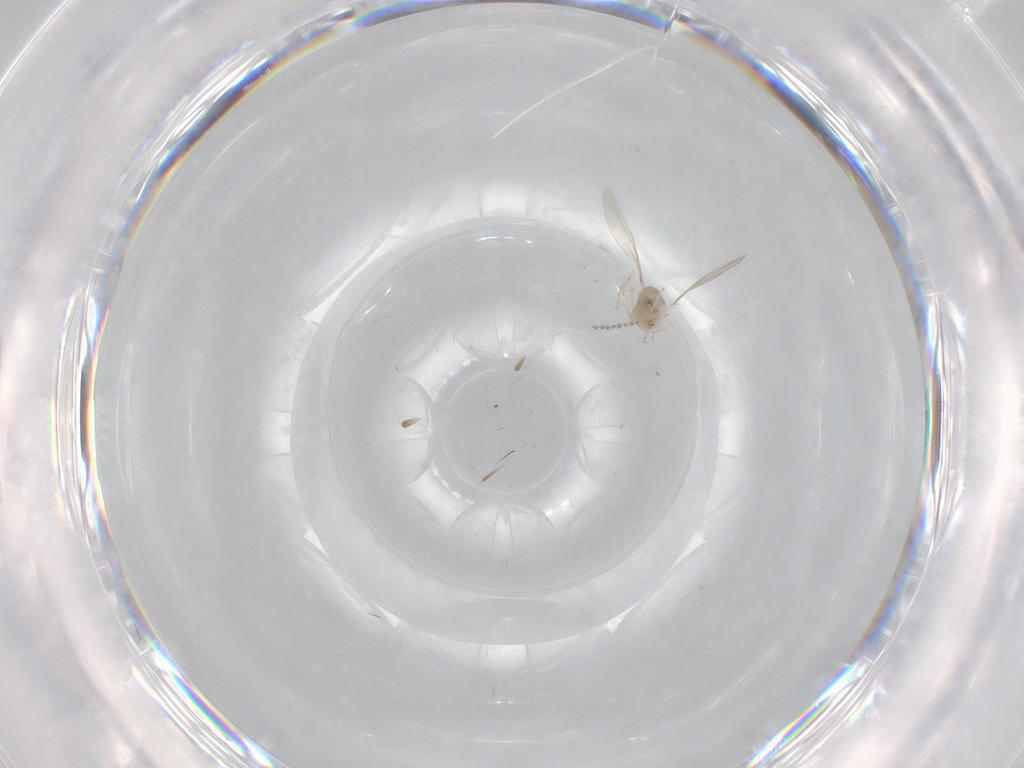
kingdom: Animalia
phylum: Arthropoda
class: Insecta
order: Diptera
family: Cecidomyiidae
